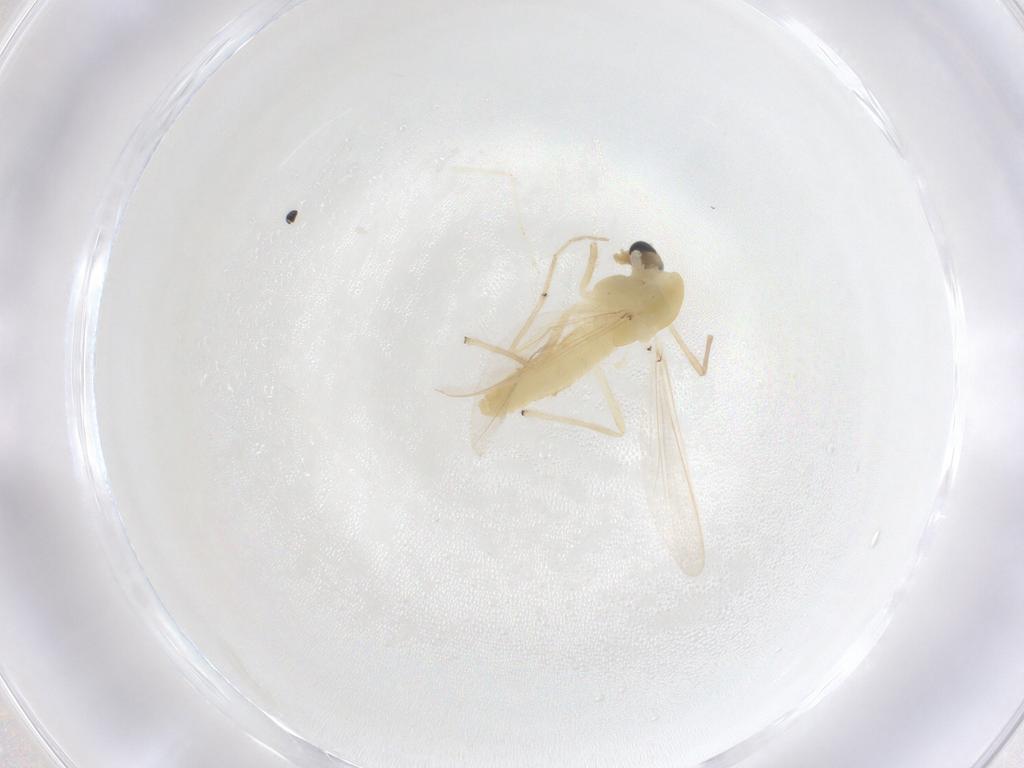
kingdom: Animalia
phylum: Arthropoda
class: Insecta
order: Diptera
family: Chironomidae
